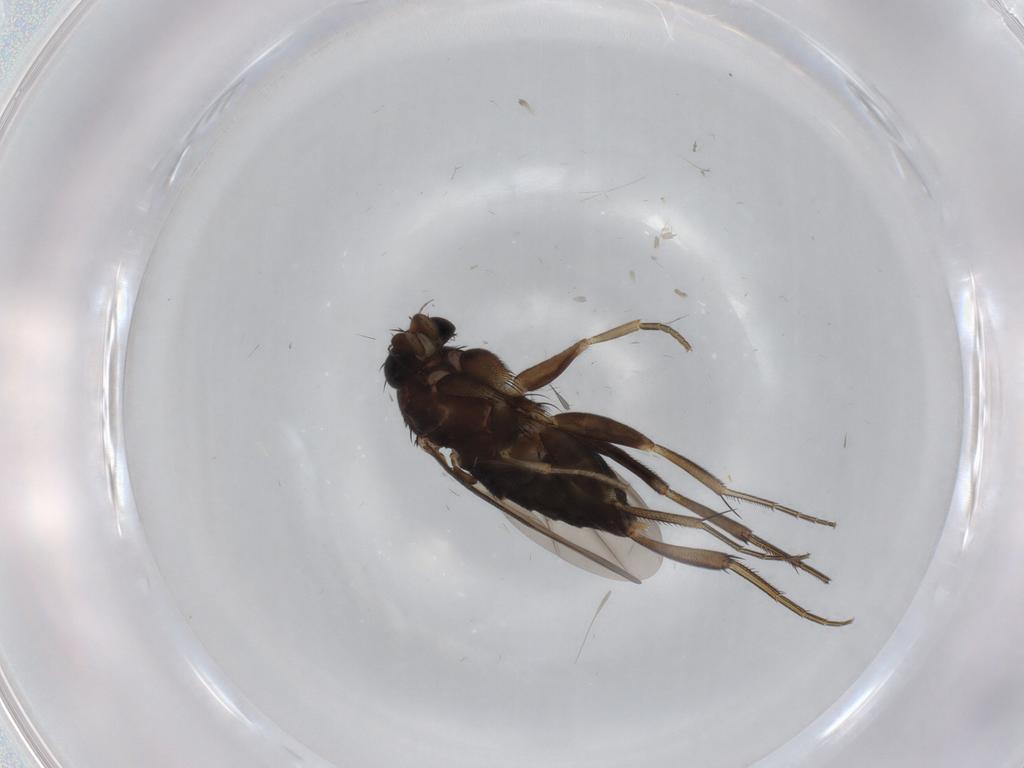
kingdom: Animalia
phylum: Arthropoda
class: Insecta
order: Diptera
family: Phoridae
